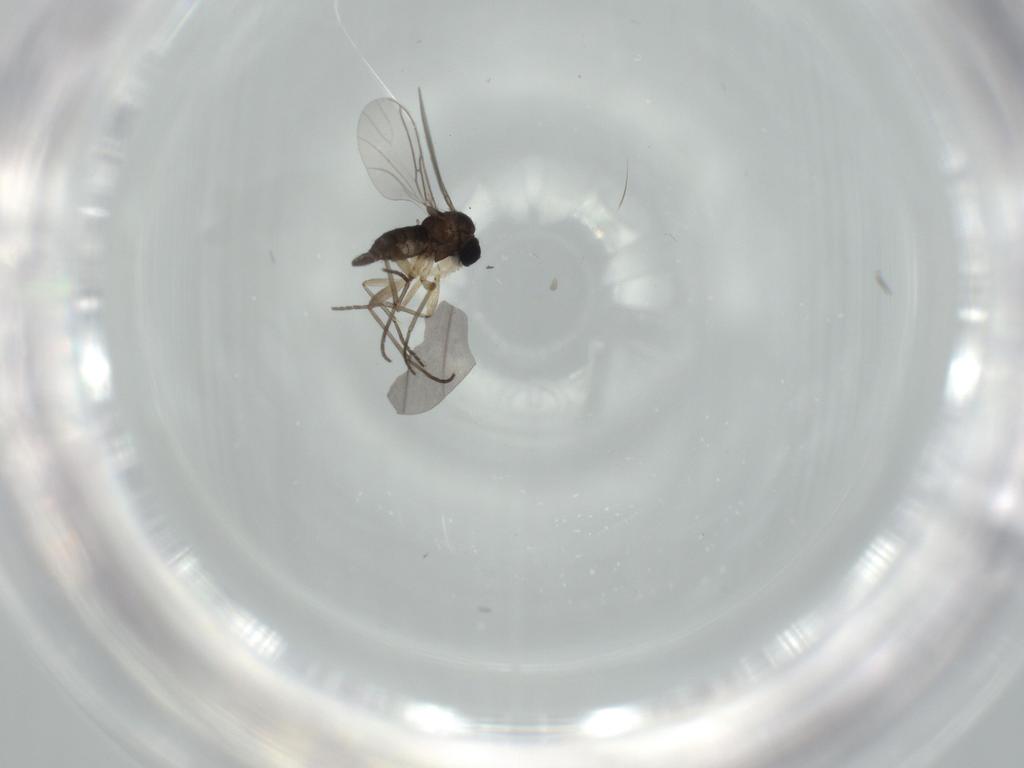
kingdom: Animalia
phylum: Arthropoda
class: Insecta
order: Diptera
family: Sciaridae
